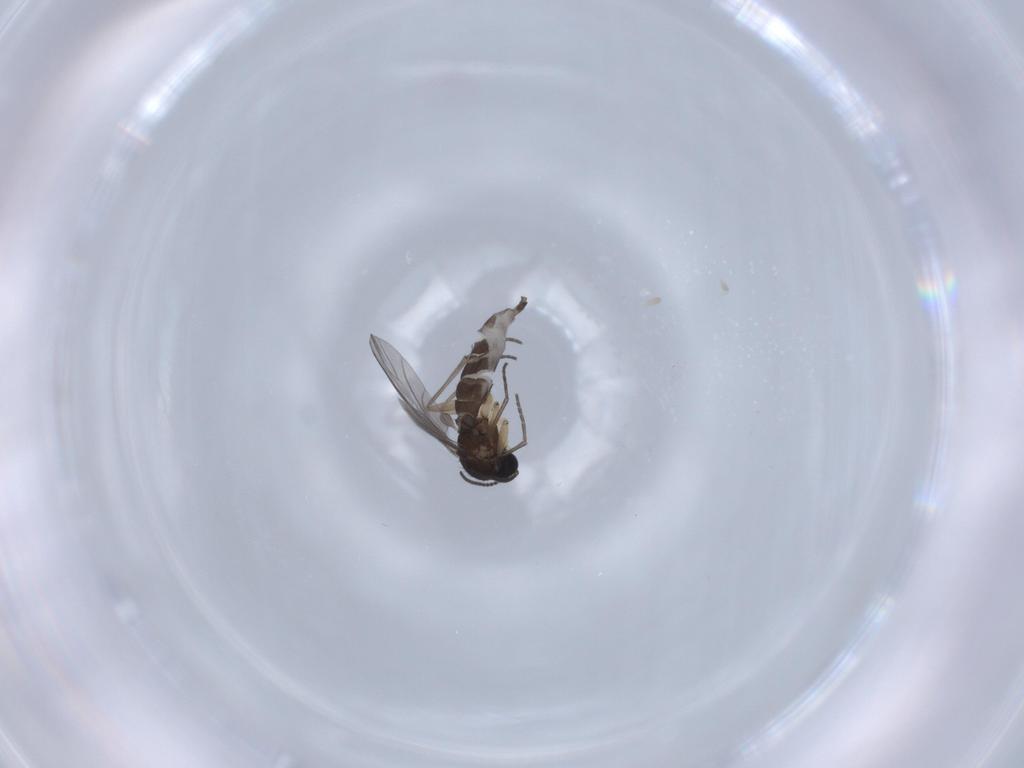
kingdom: Animalia
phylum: Arthropoda
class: Insecta
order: Diptera
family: Sciaridae
